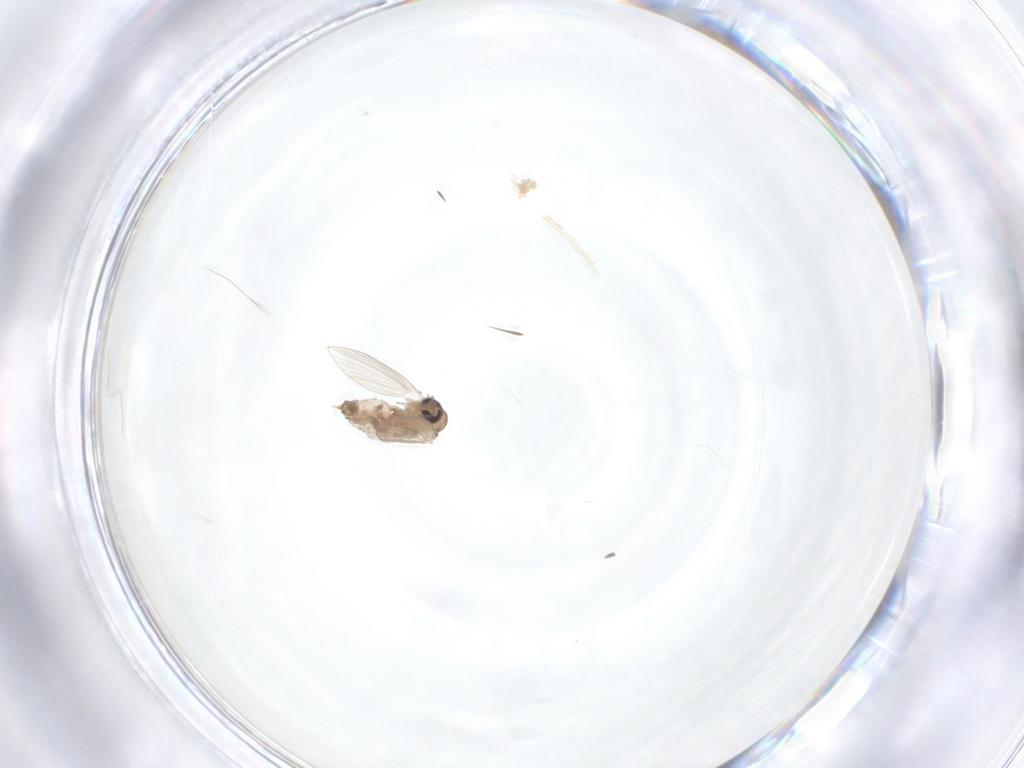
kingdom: Animalia
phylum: Arthropoda
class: Insecta
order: Diptera
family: Psychodidae
